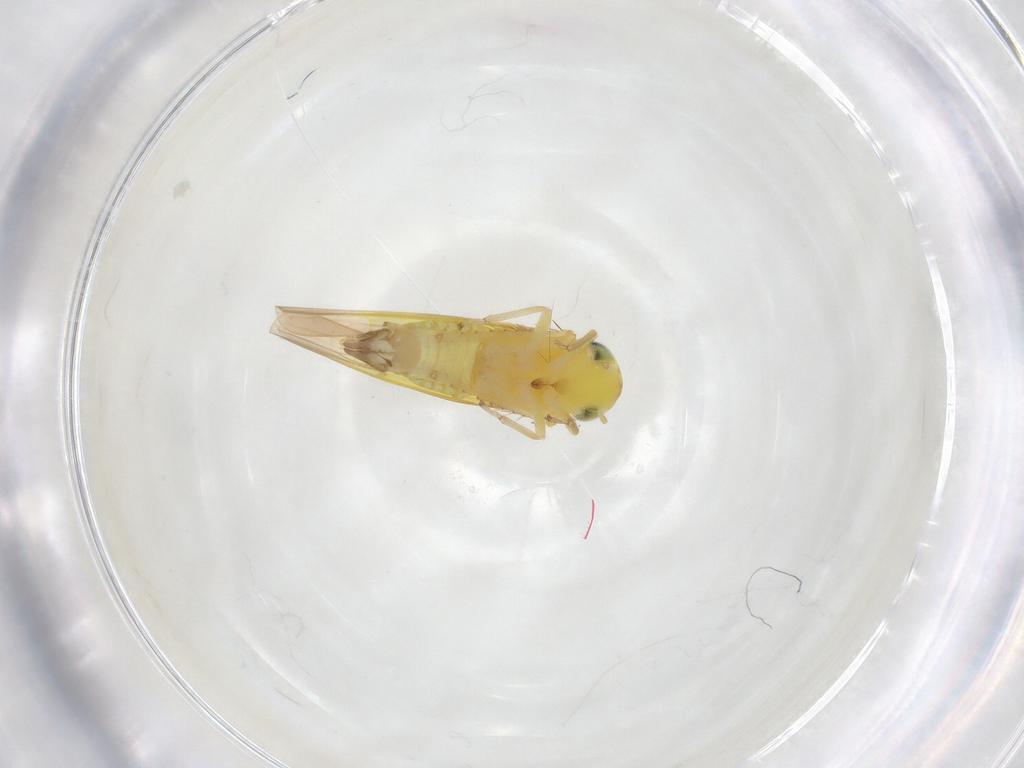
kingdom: Animalia
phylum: Arthropoda
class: Insecta
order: Hemiptera
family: Cicadellidae
